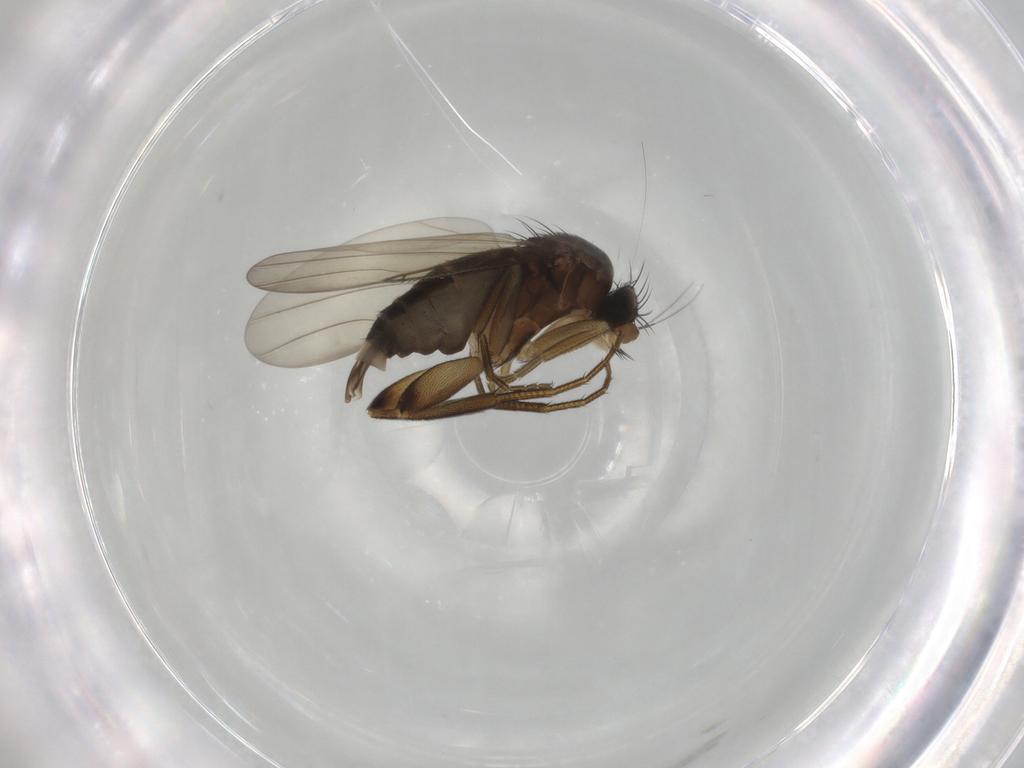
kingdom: Animalia
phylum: Arthropoda
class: Insecta
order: Diptera
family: Phoridae
